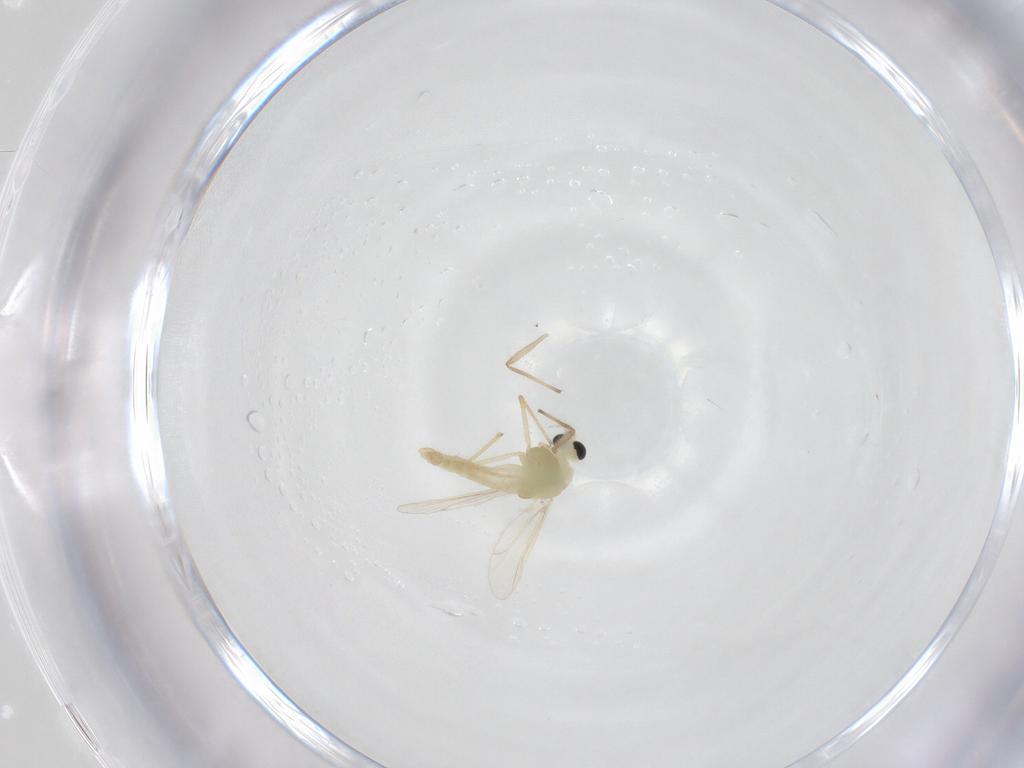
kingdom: Animalia
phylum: Arthropoda
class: Insecta
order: Diptera
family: Chironomidae
